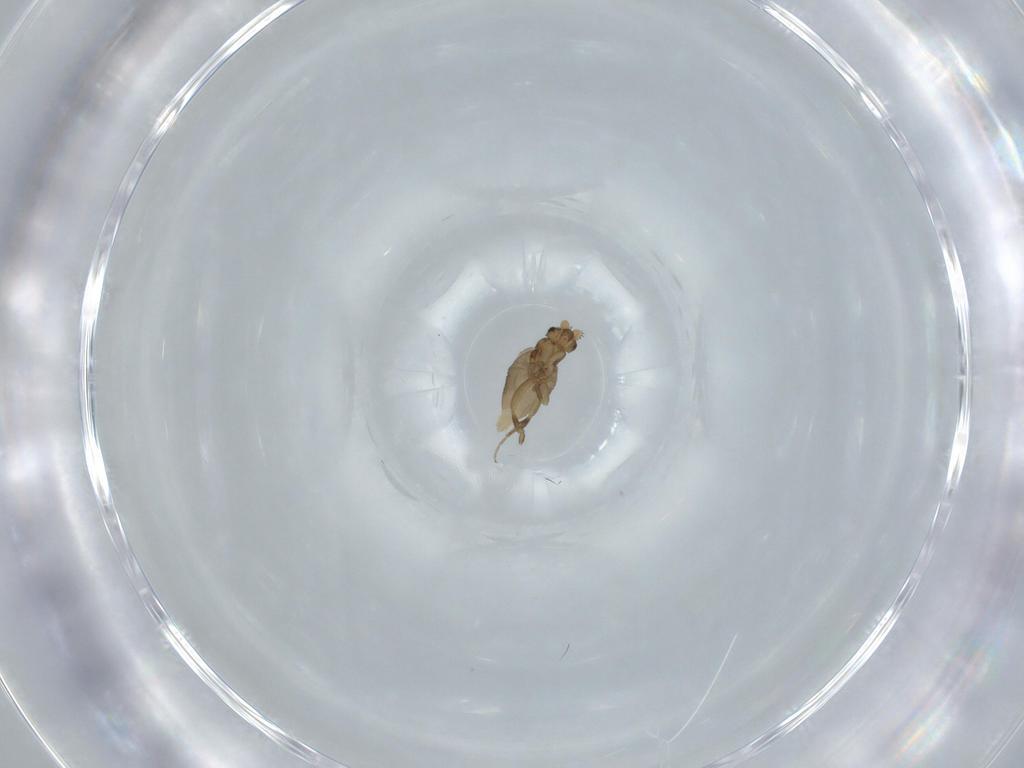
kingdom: Animalia
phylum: Arthropoda
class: Insecta
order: Diptera
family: Phoridae
